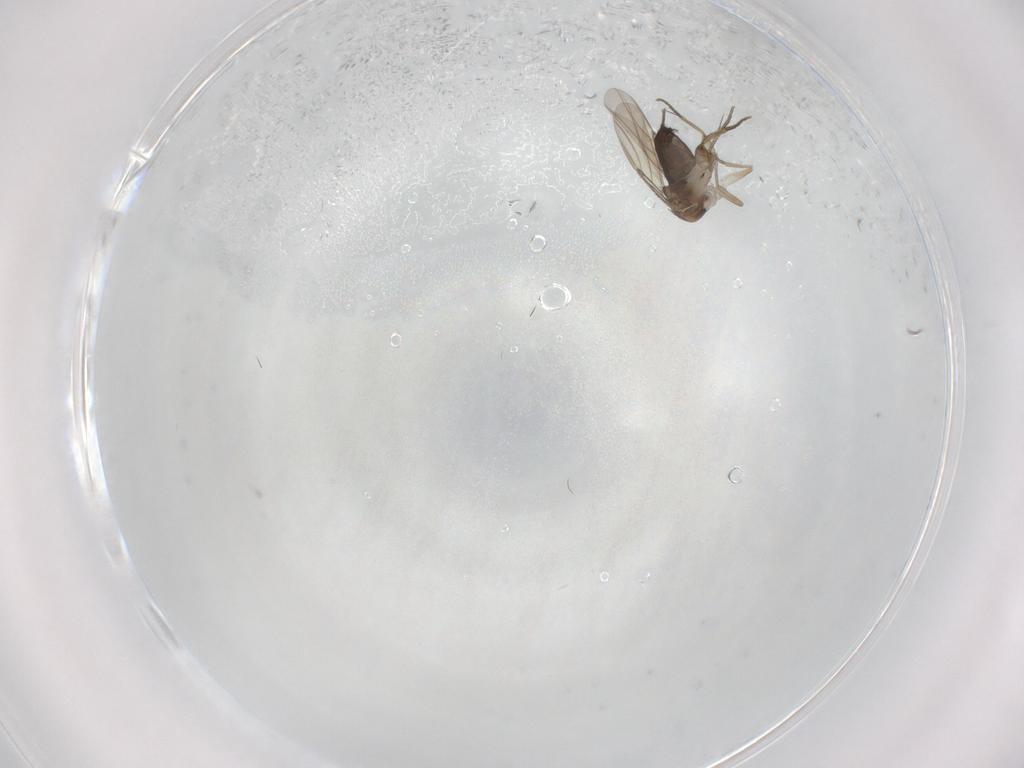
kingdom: Animalia
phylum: Arthropoda
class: Insecta
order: Diptera
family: Phoridae
